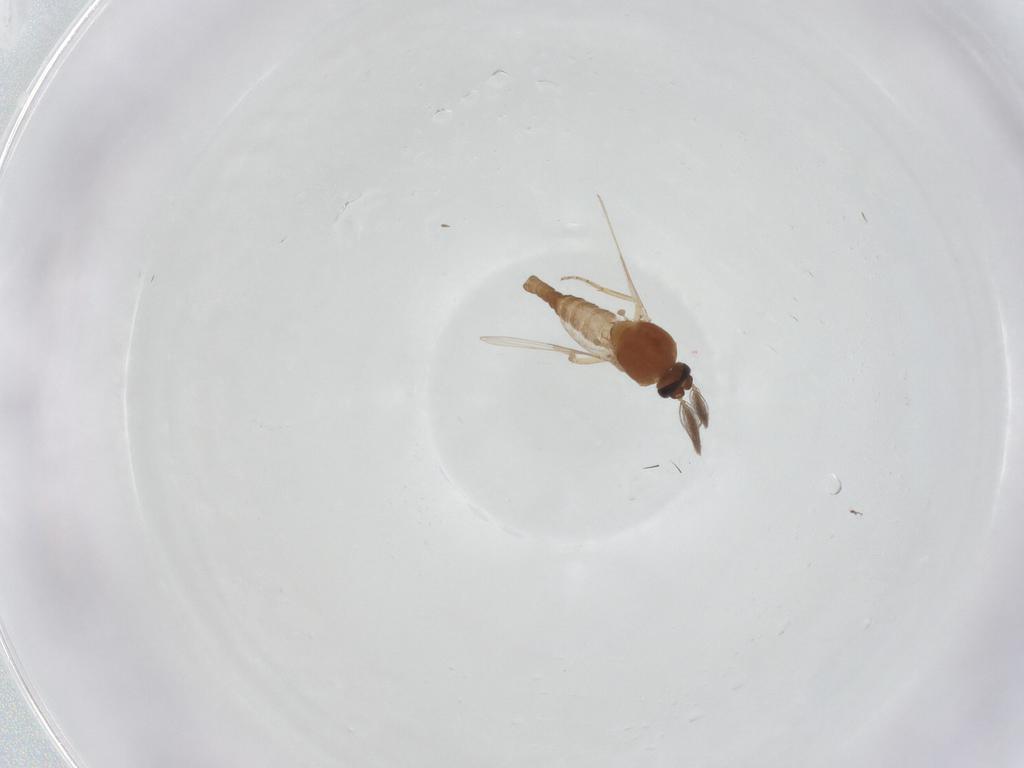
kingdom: Animalia
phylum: Arthropoda
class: Insecta
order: Diptera
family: Ceratopogonidae
